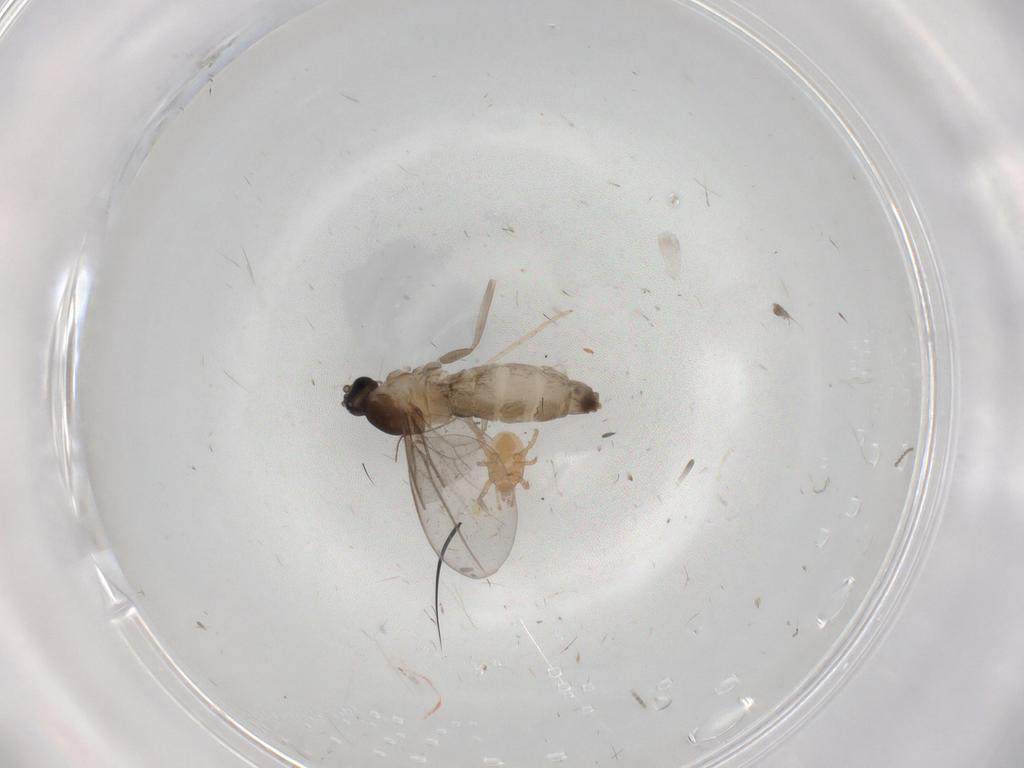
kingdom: Animalia
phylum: Arthropoda
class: Insecta
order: Diptera
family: Cecidomyiidae
